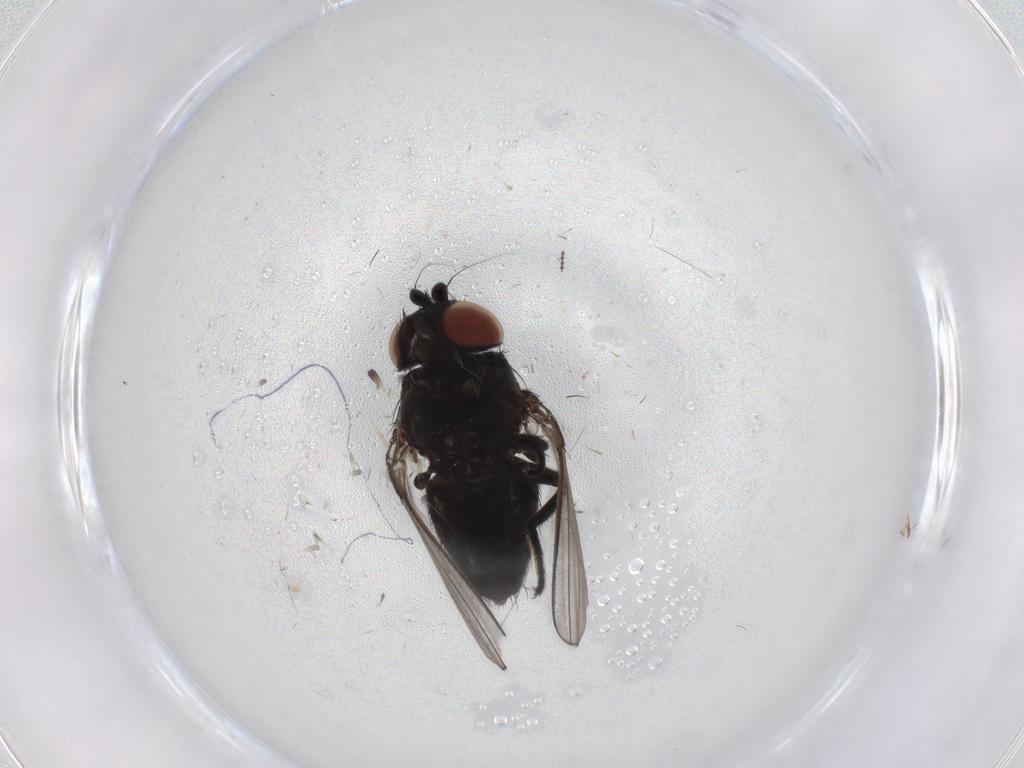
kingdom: Animalia
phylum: Arthropoda
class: Insecta
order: Diptera
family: Milichiidae
